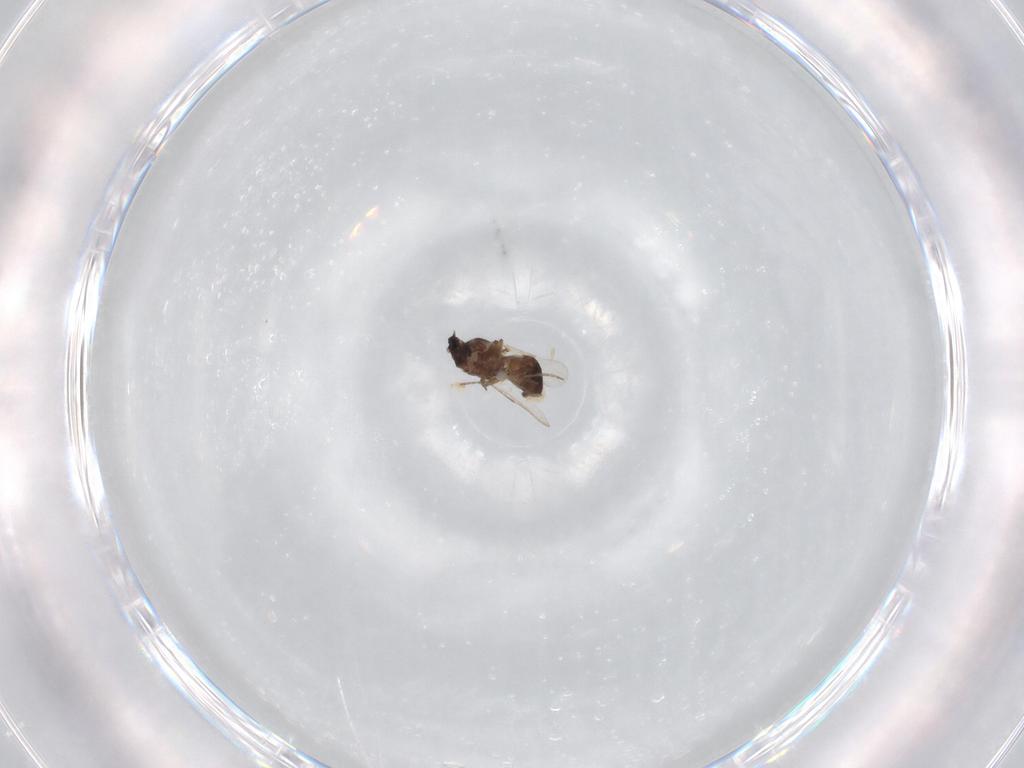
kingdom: Animalia
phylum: Arthropoda
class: Insecta
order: Diptera
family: Ceratopogonidae
